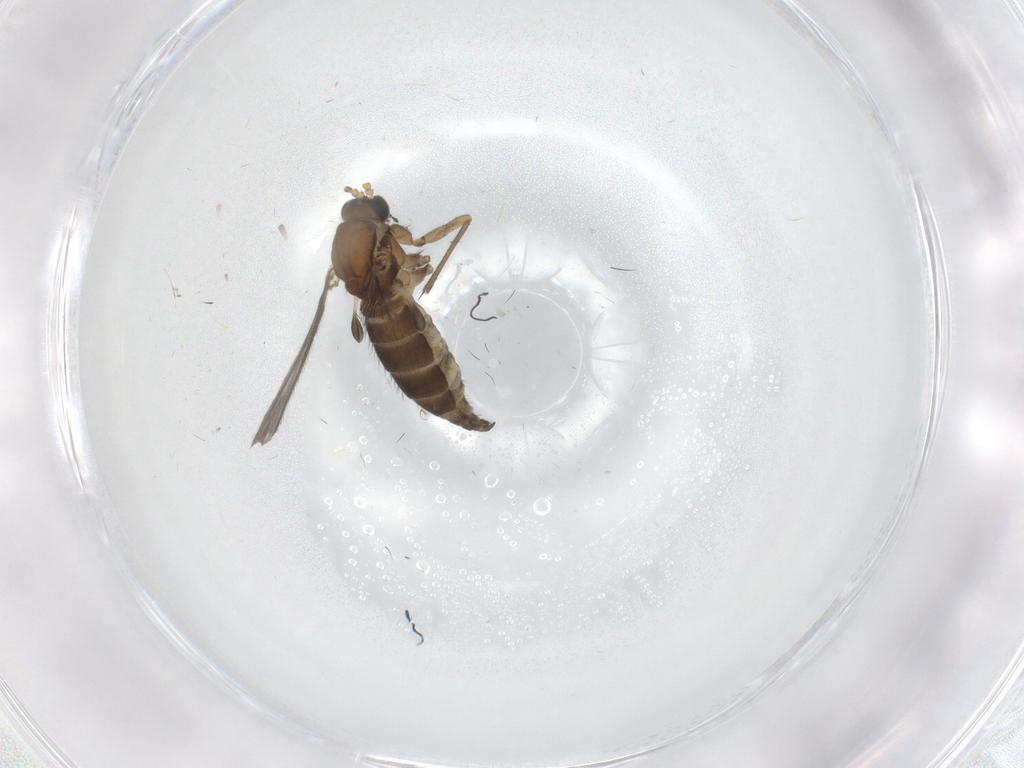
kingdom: Animalia
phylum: Arthropoda
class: Insecta
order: Diptera
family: Sciaridae
